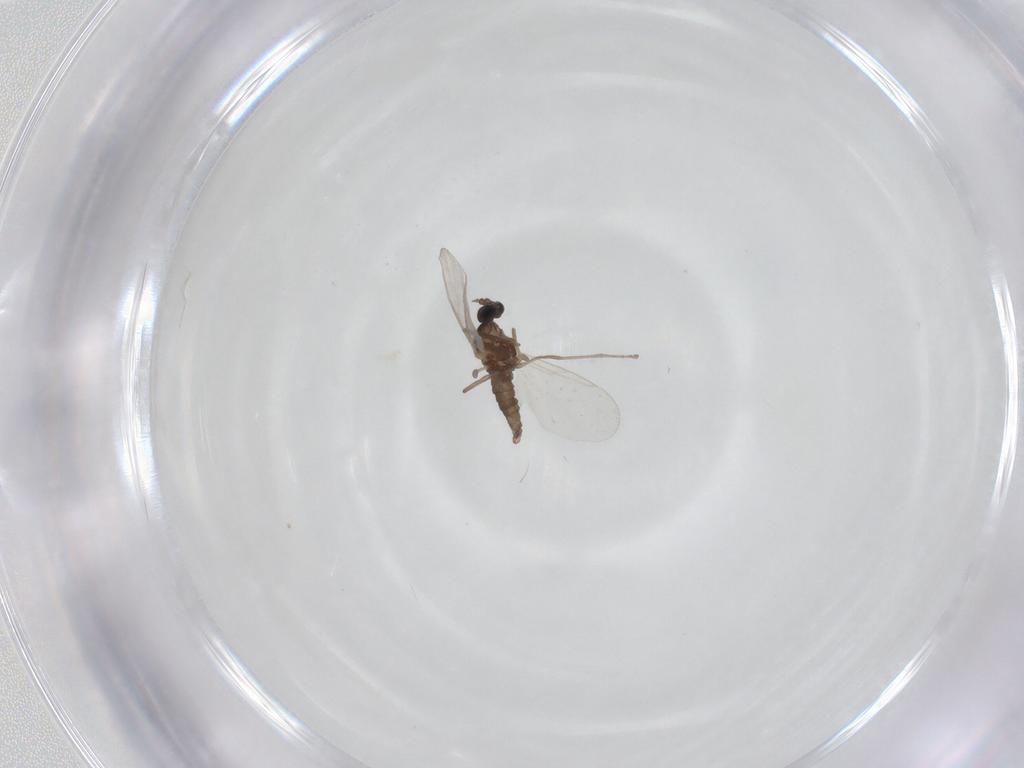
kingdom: Animalia
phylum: Arthropoda
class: Insecta
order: Diptera
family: Cecidomyiidae
